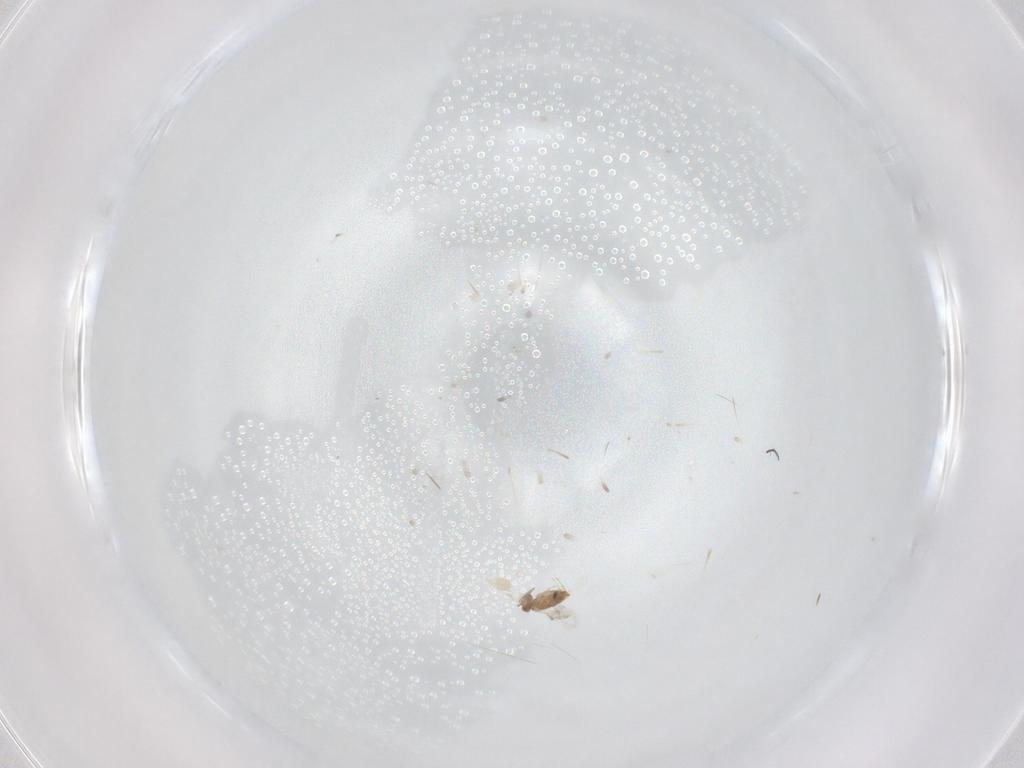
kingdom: Animalia
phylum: Arthropoda
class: Insecta
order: Hymenoptera
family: Aphelinidae
